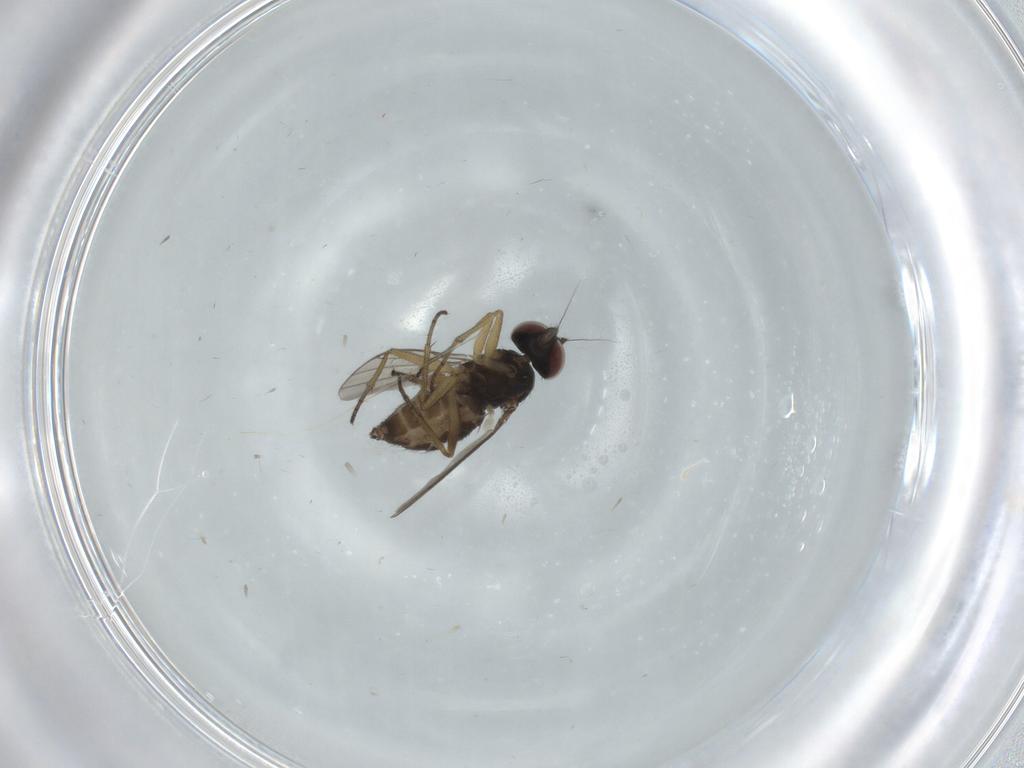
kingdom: Animalia
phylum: Arthropoda
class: Insecta
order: Diptera
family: Dolichopodidae
